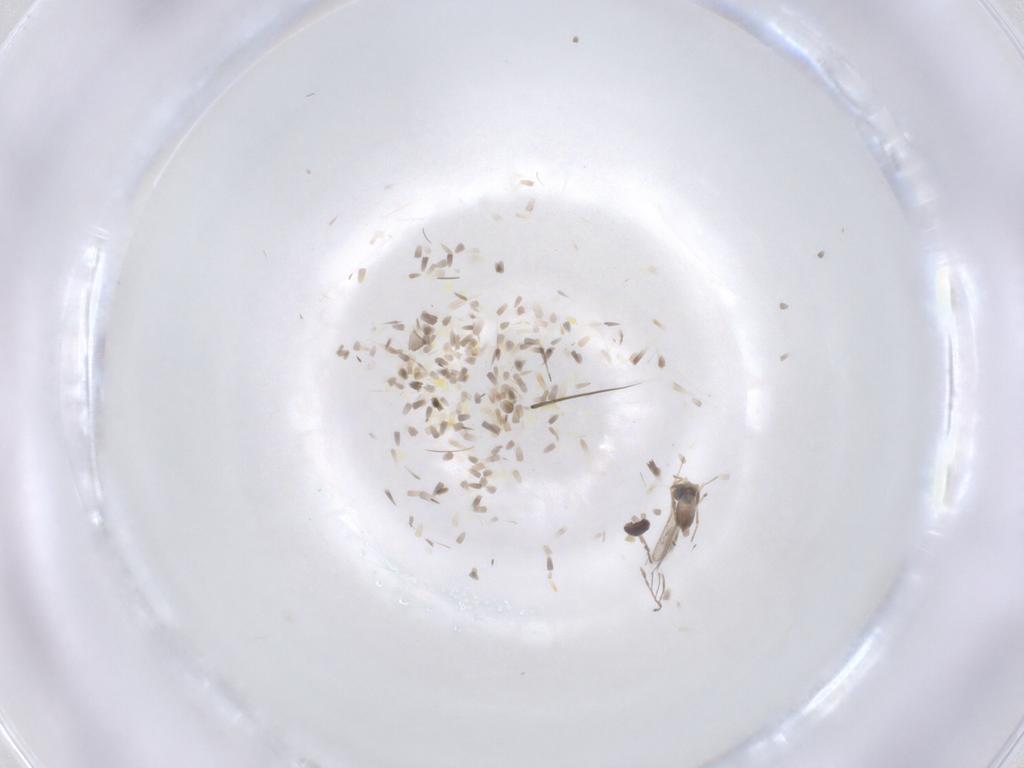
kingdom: Animalia
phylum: Arthropoda
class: Insecta
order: Hymenoptera
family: Eulophidae
